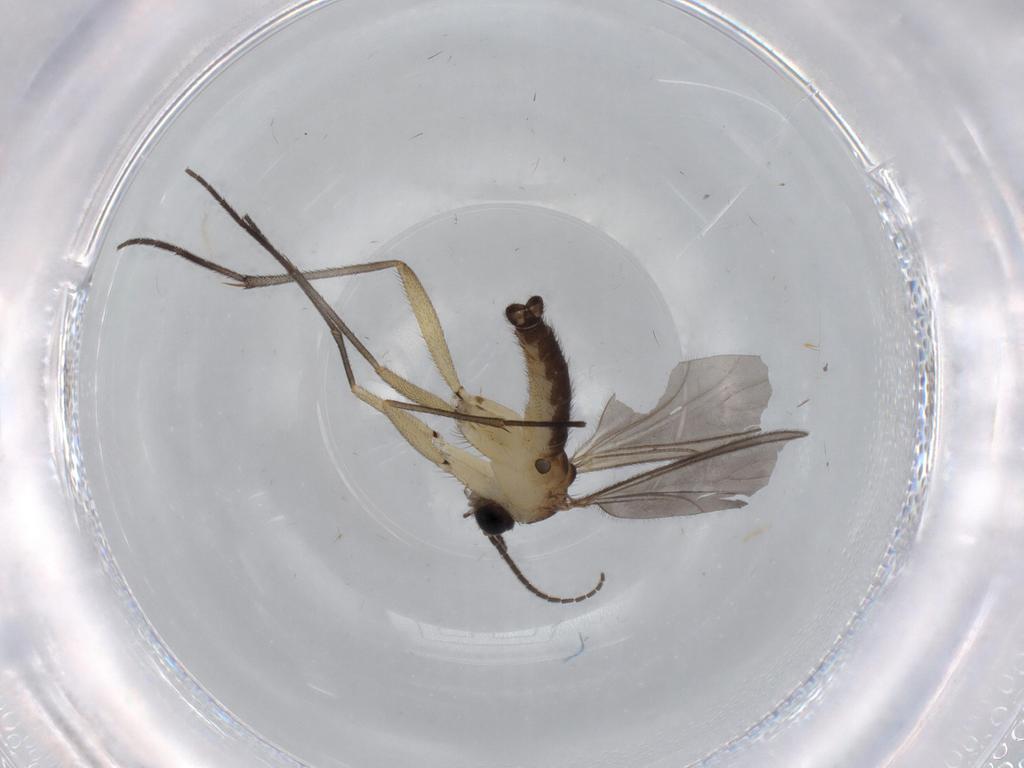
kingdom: Animalia
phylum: Arthropoda
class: Insecta
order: Diptera
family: Sciaridae
